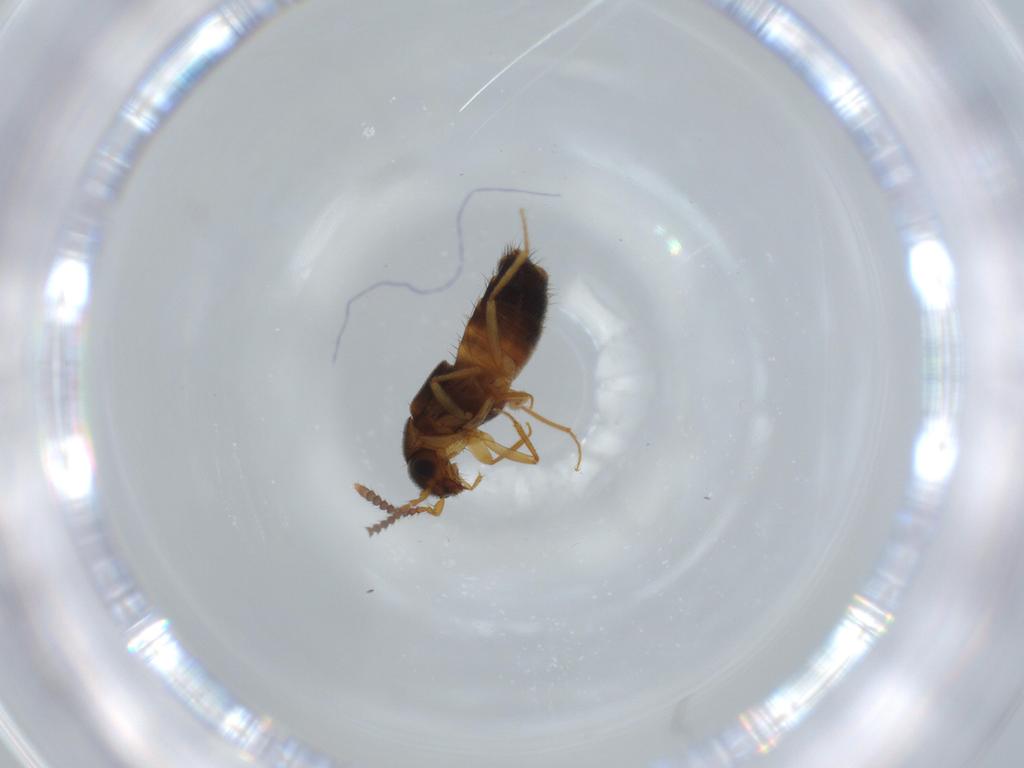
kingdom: Animalia
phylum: Arthropoda
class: Insecta
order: Coleoptera
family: Staphylinidae
